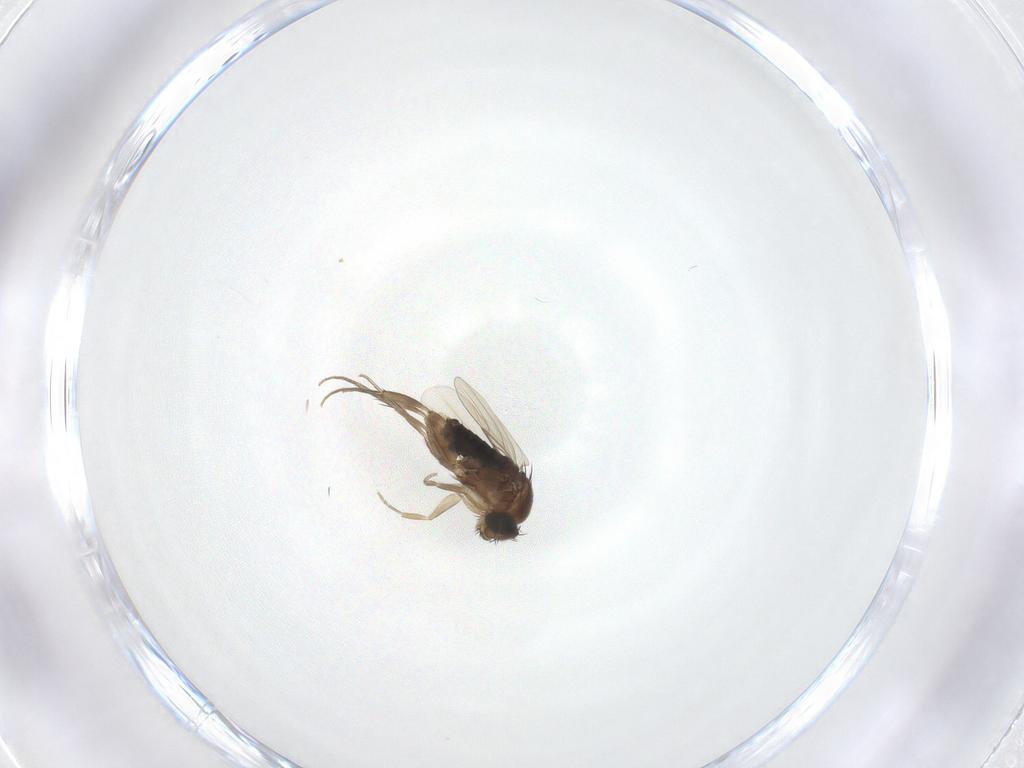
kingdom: Animalia
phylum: Arthropoda
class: Insecta
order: Diptera
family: Phoridae
